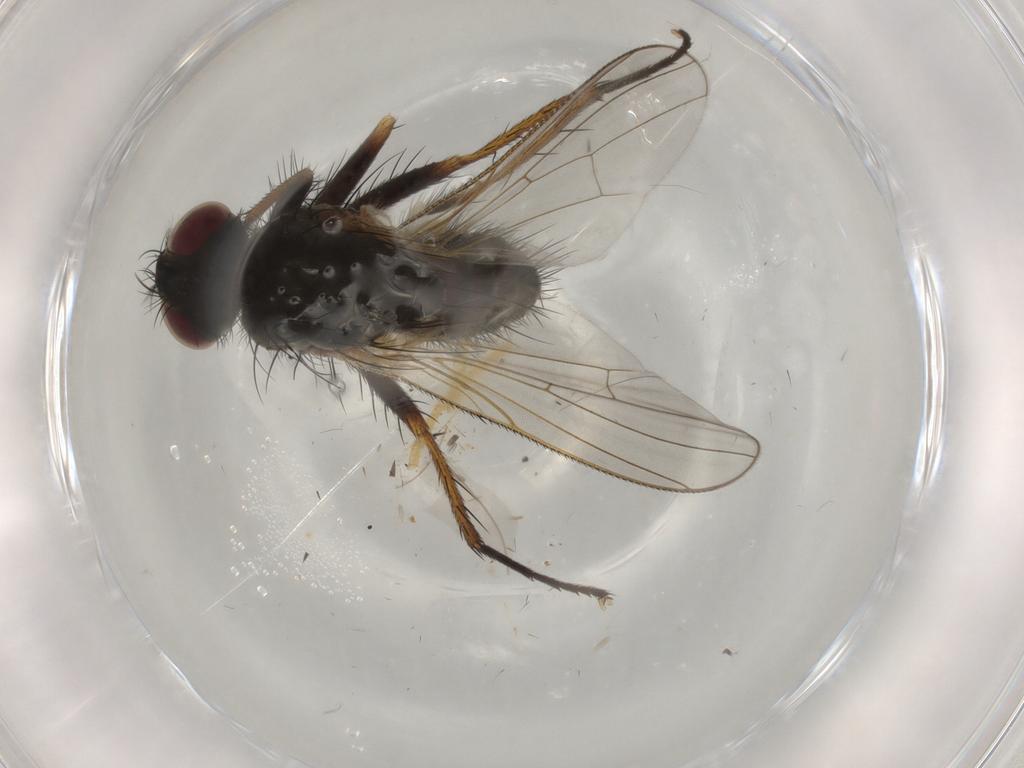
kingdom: Animalia
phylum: Arthropoda
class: Insecta
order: Diptera
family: Anthomyiidae
